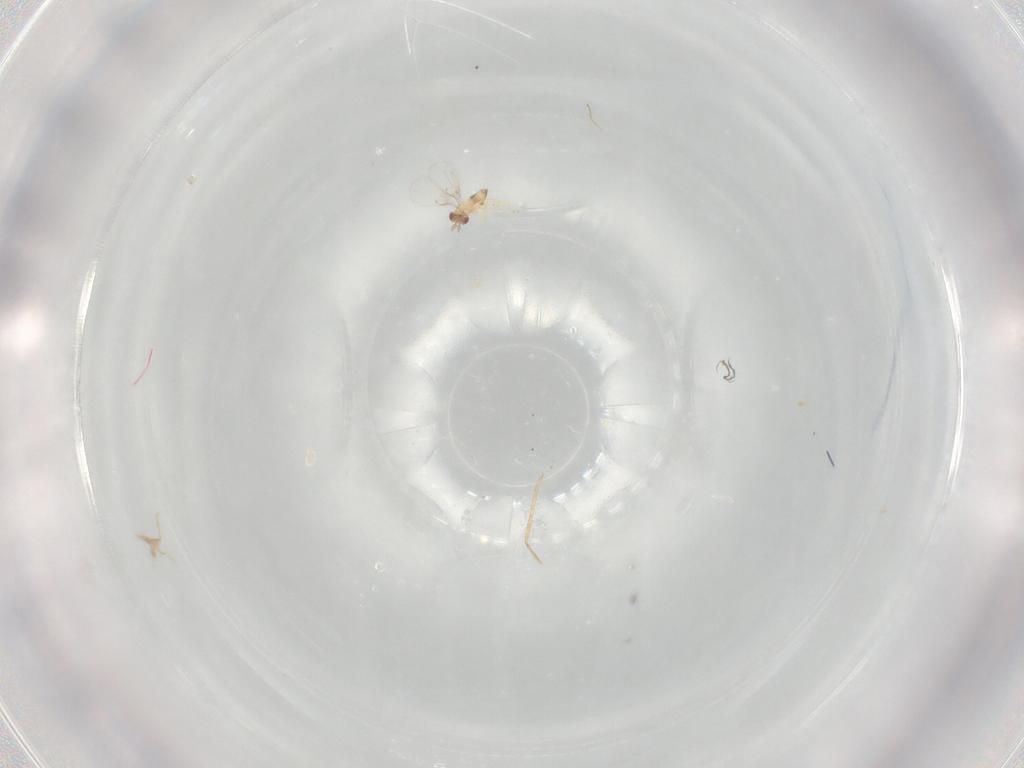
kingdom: Animalia
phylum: Arthropoda
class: Insecta
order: Hymenoptera
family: Trichogrammatidae
